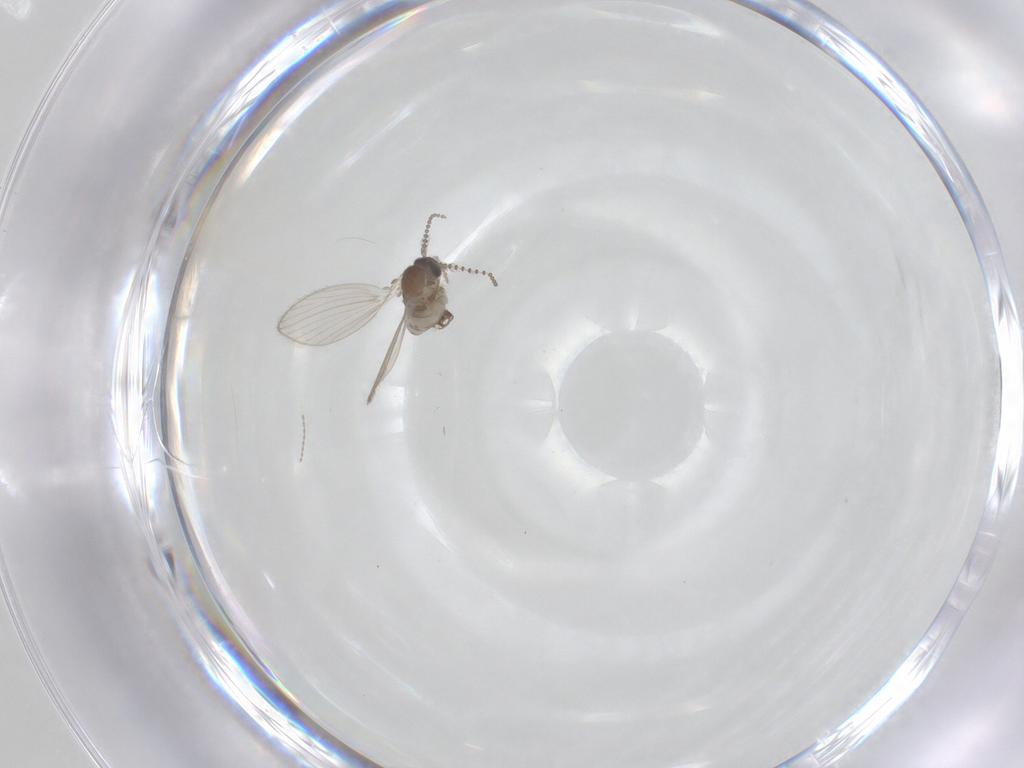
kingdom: Animalia
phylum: Arthropoda
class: Insecta
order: Diptera
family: Psychodidae
